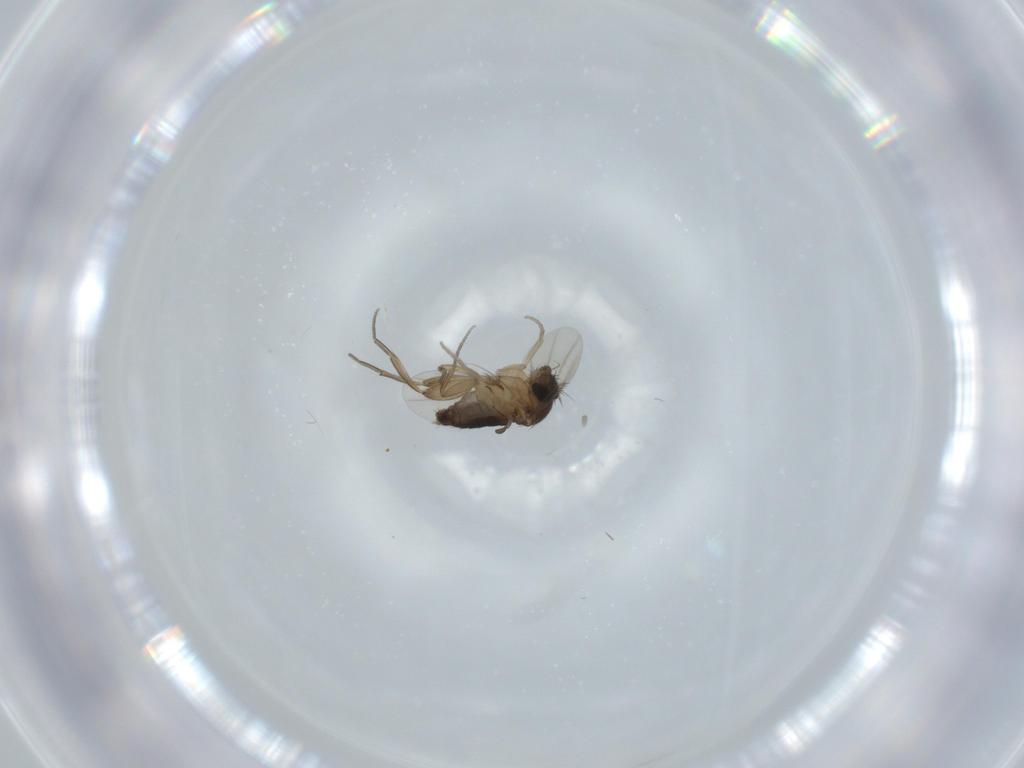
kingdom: Animalia
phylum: Arthropoda
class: Insecta
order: Diptera
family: Phoridae
